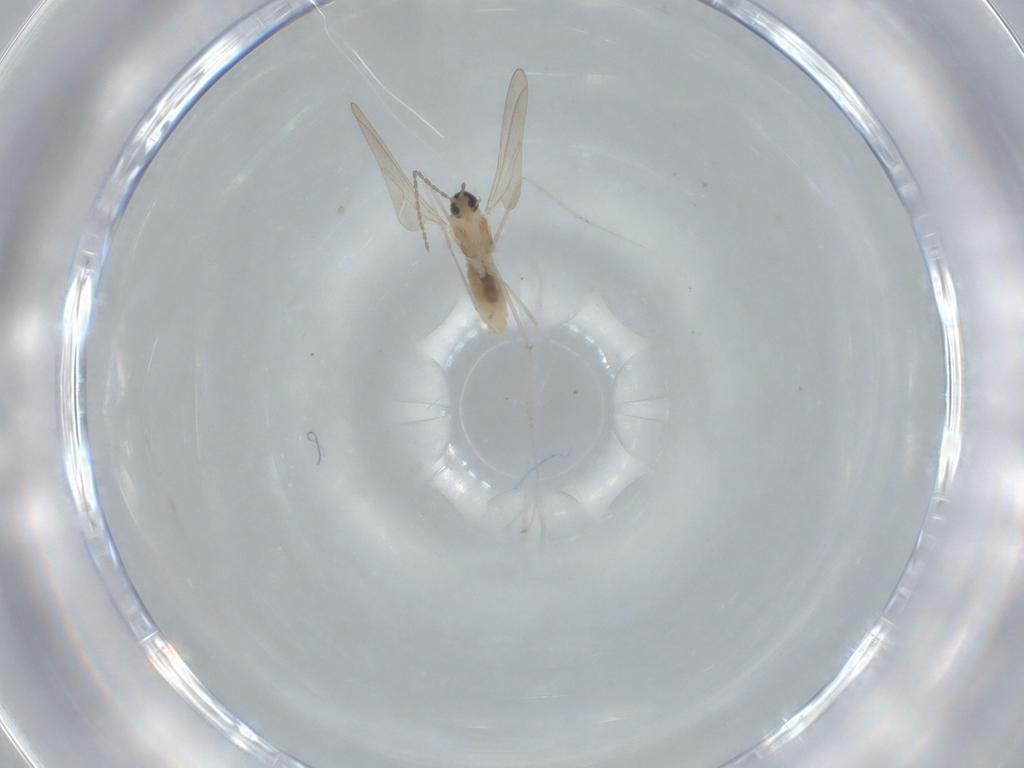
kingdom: Animalia
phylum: Arthropoda
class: Insecta
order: Diptera
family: Cecidomyiidae
